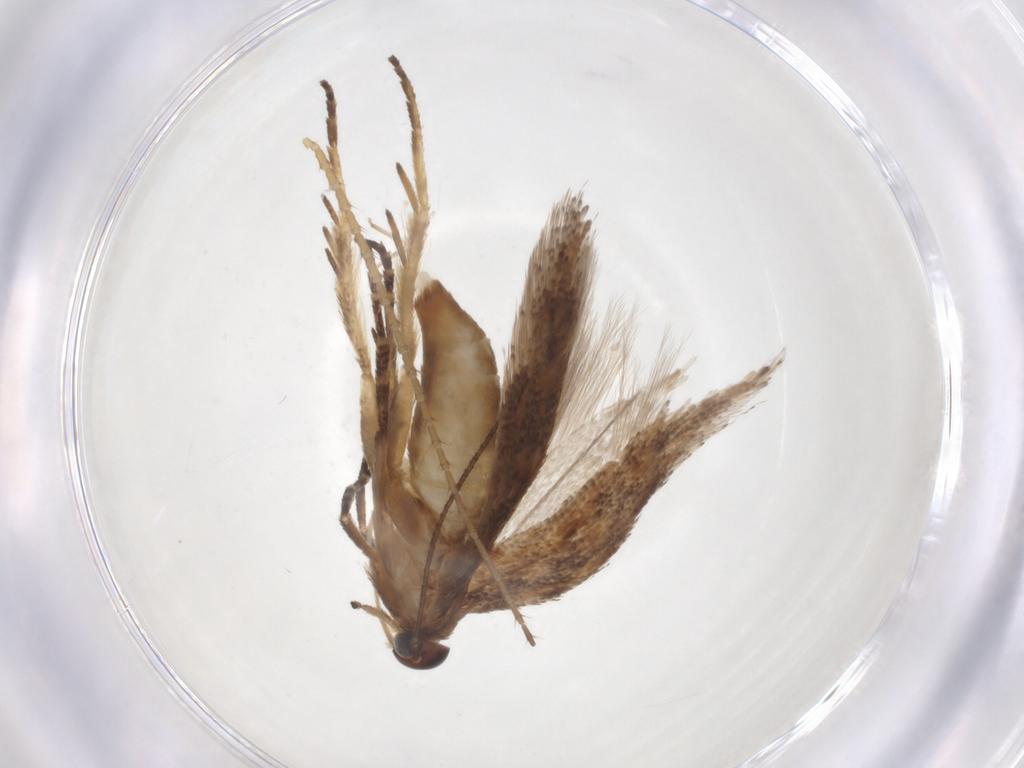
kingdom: Animalia
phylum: Arthropoda
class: Insecta
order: Lepidoptera
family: Gelechiidae
